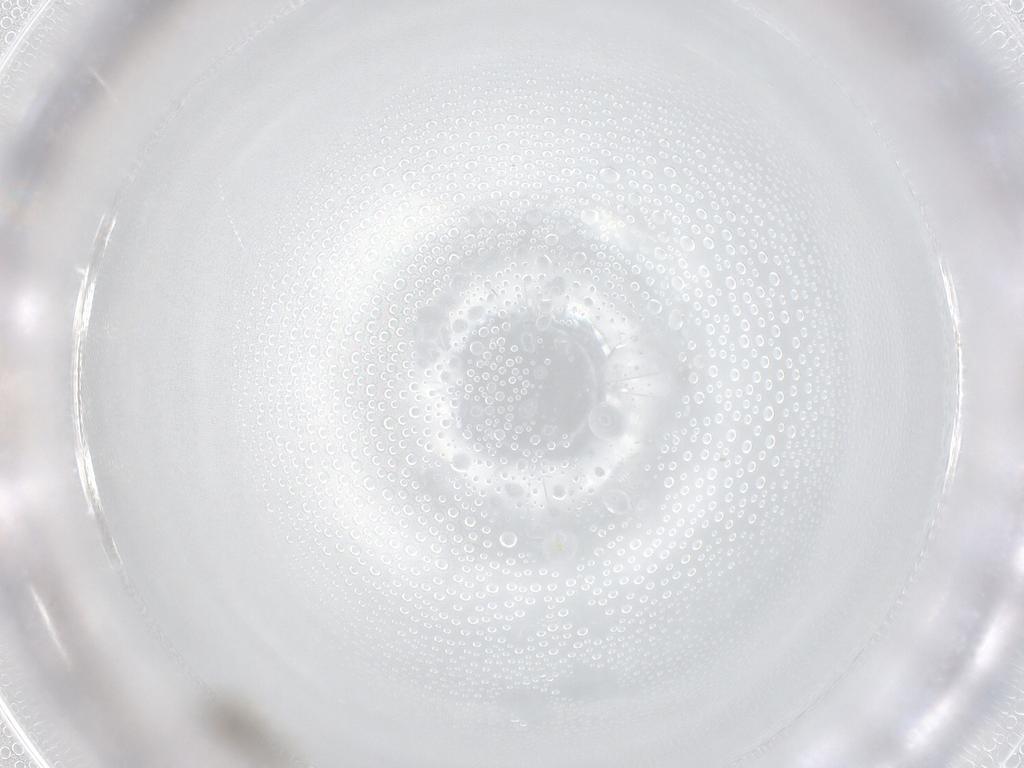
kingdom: Animalia
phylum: Arthropoda
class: Insecta
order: Diptera
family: Cecidomyiidae
